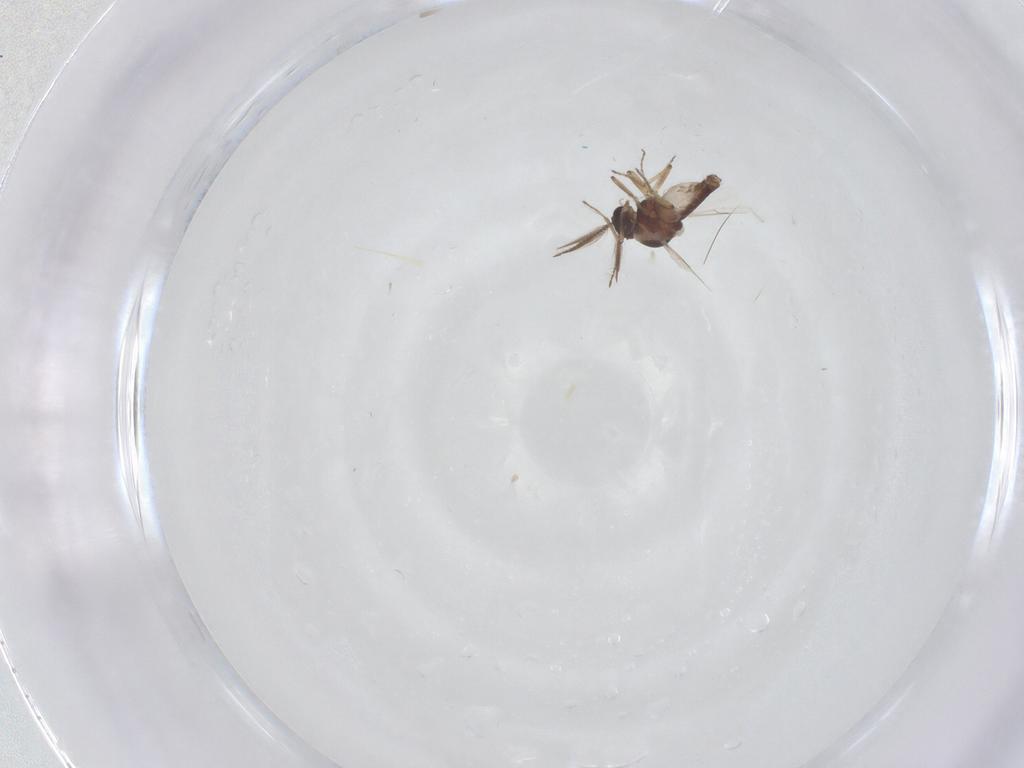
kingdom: Animalia
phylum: Arthropoda
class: Insecta
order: Diptera
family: Ceratopogonidae
